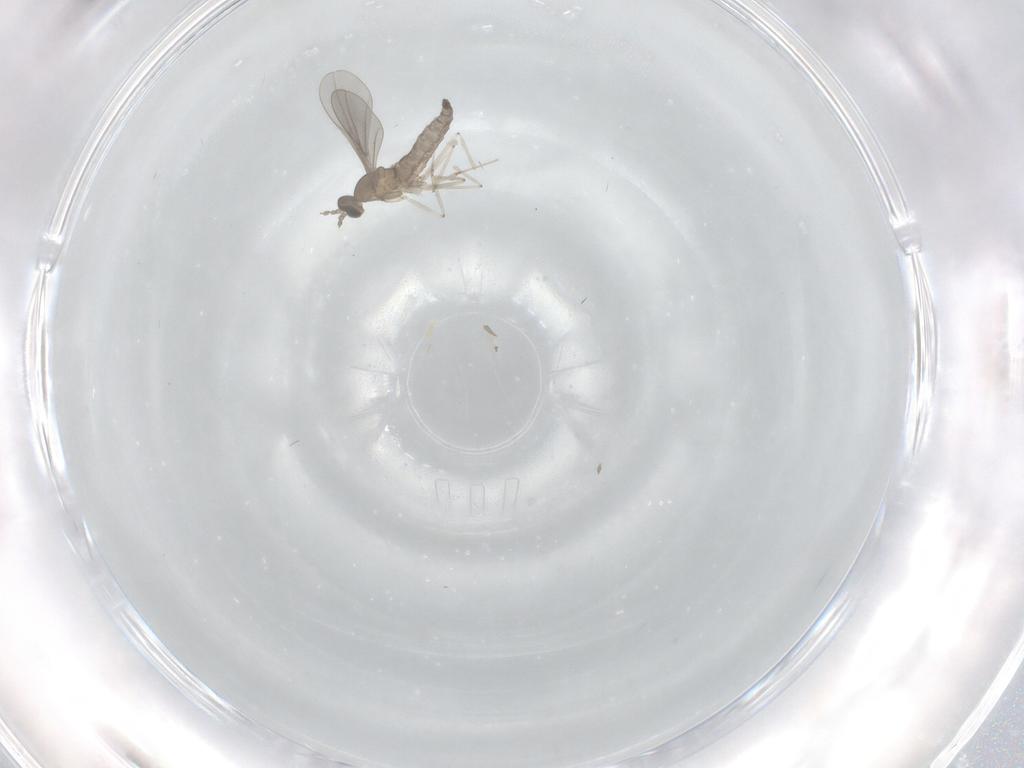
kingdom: Animalia
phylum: Arthropoda
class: Insecta
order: Diptera
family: Cecidomyiidae
